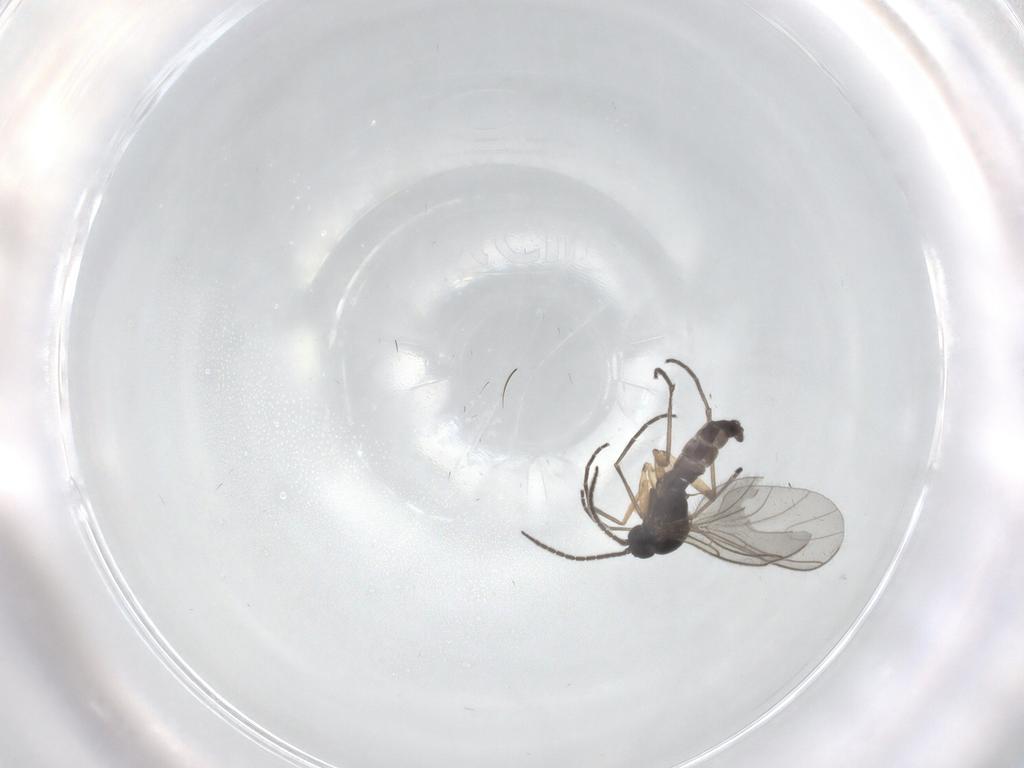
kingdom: Animalia
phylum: Arthropoda
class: Insecta
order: Diptera
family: Sciaridae
